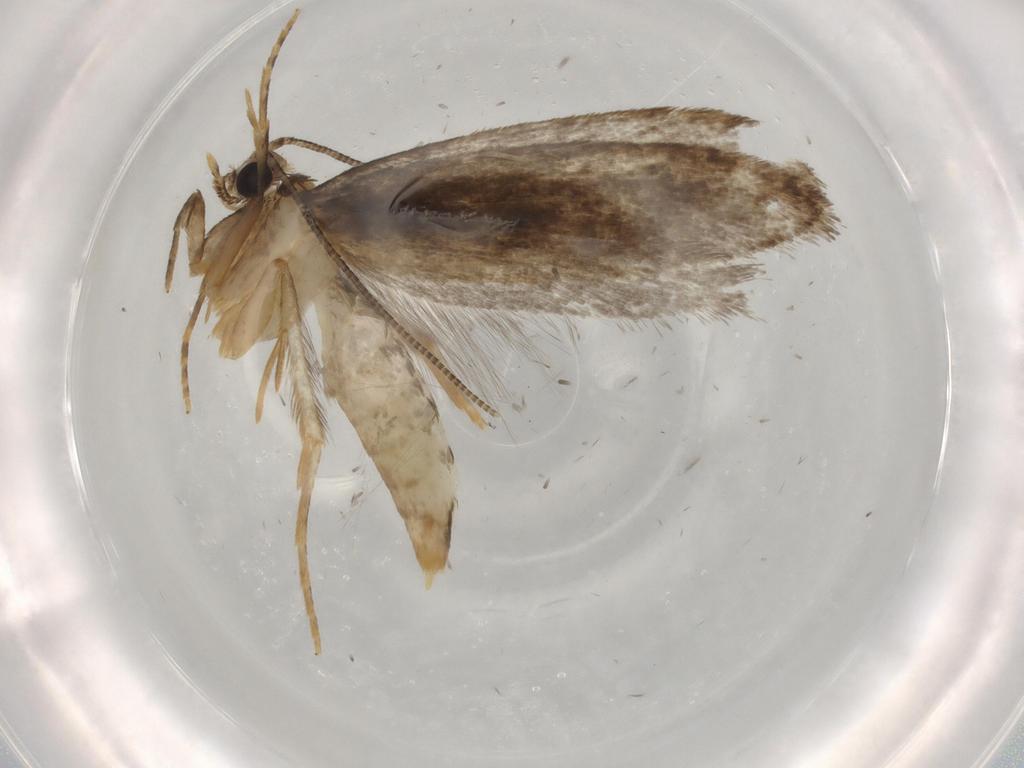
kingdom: Animalia
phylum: Arthropoda
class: Insecta
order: Lepidoptera
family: Tineidae
